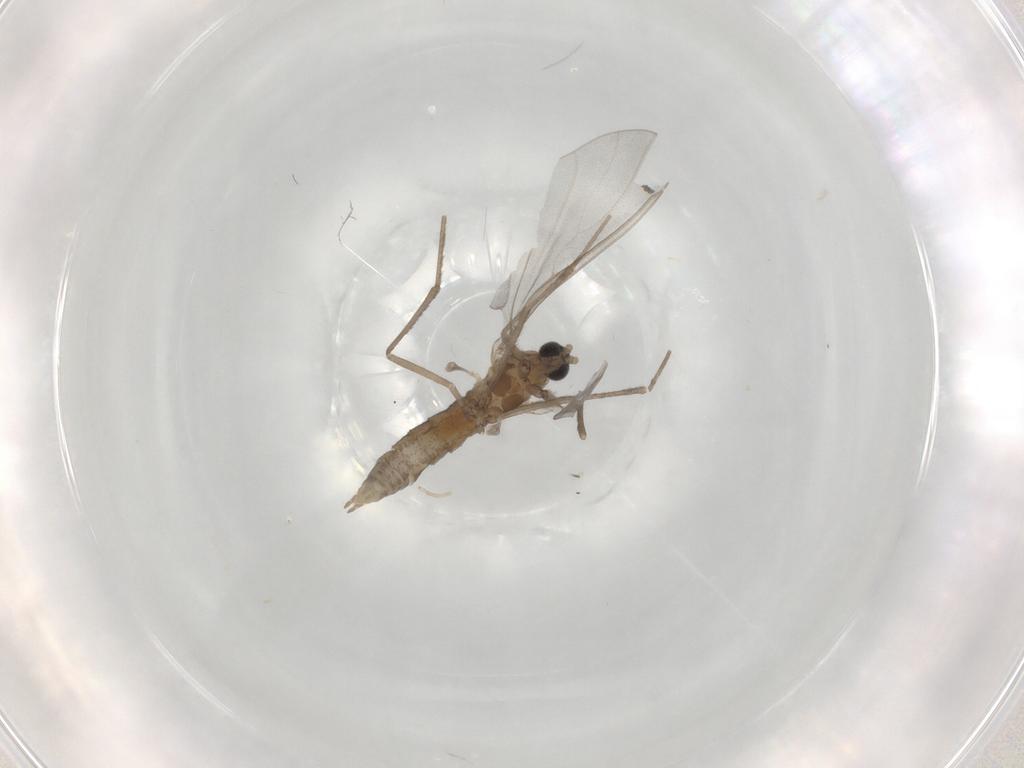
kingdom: Animalia
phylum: Arthropoda
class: Insecta
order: Diptera
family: Cecidomyiidae
